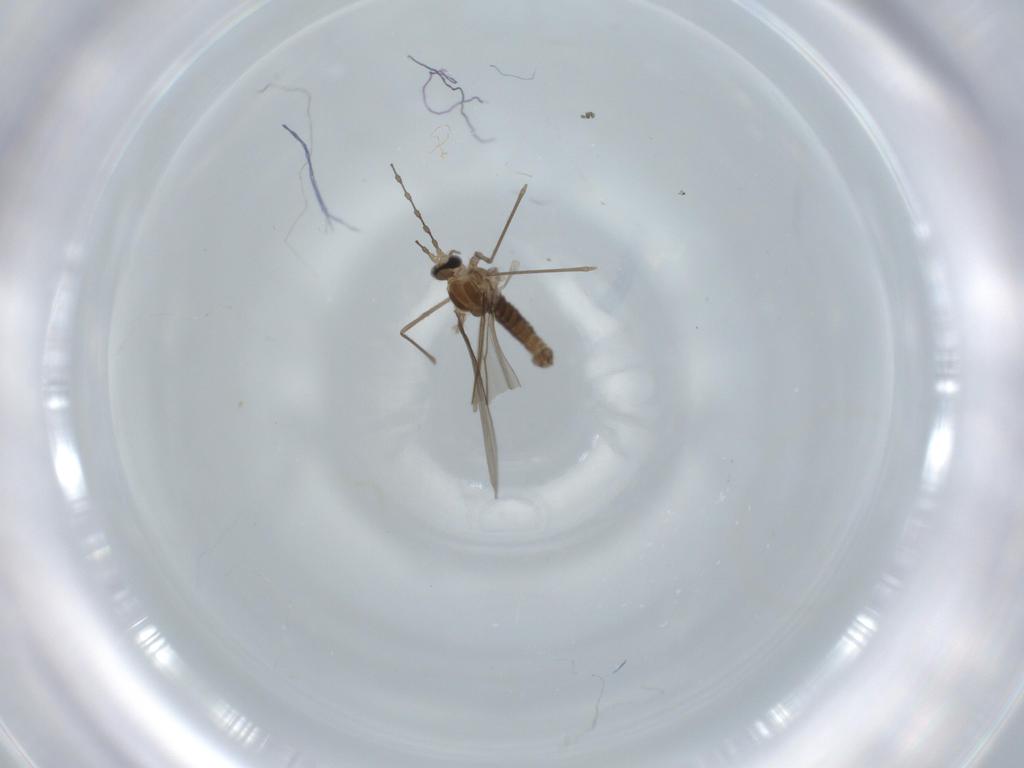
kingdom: Animalia
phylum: Arthropoda
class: Insecta
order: Diptera
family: Cecidomyiidae
